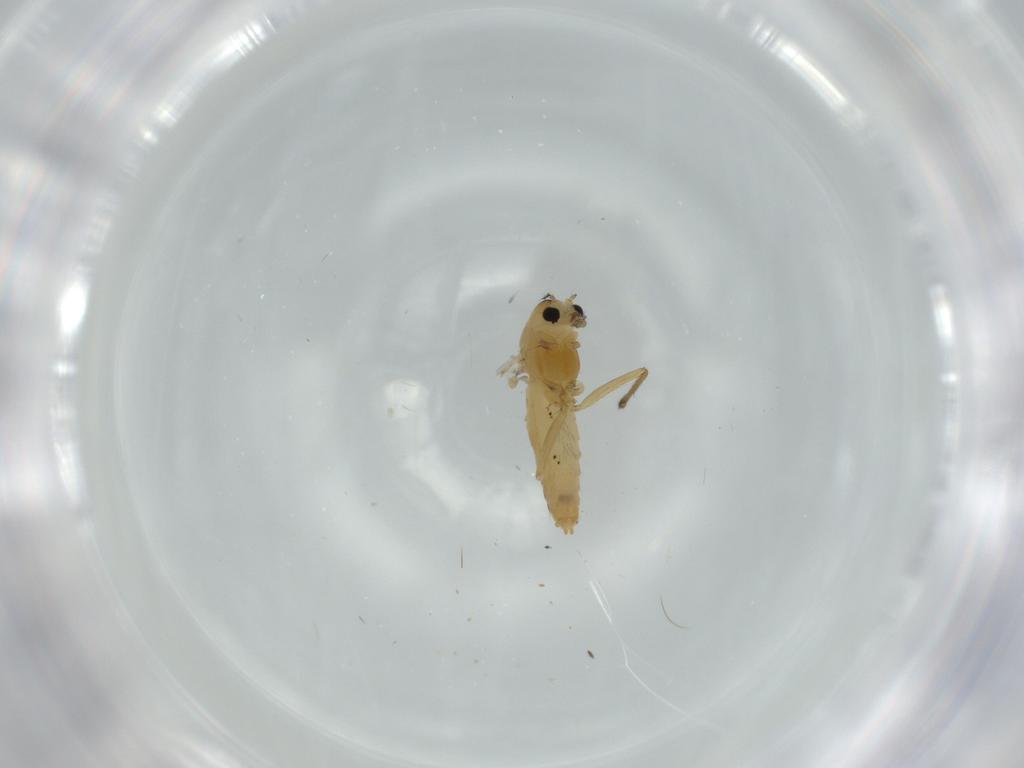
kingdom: Animalia
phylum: Arthropoda
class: Insecta
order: Diptera
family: Chironomidae
